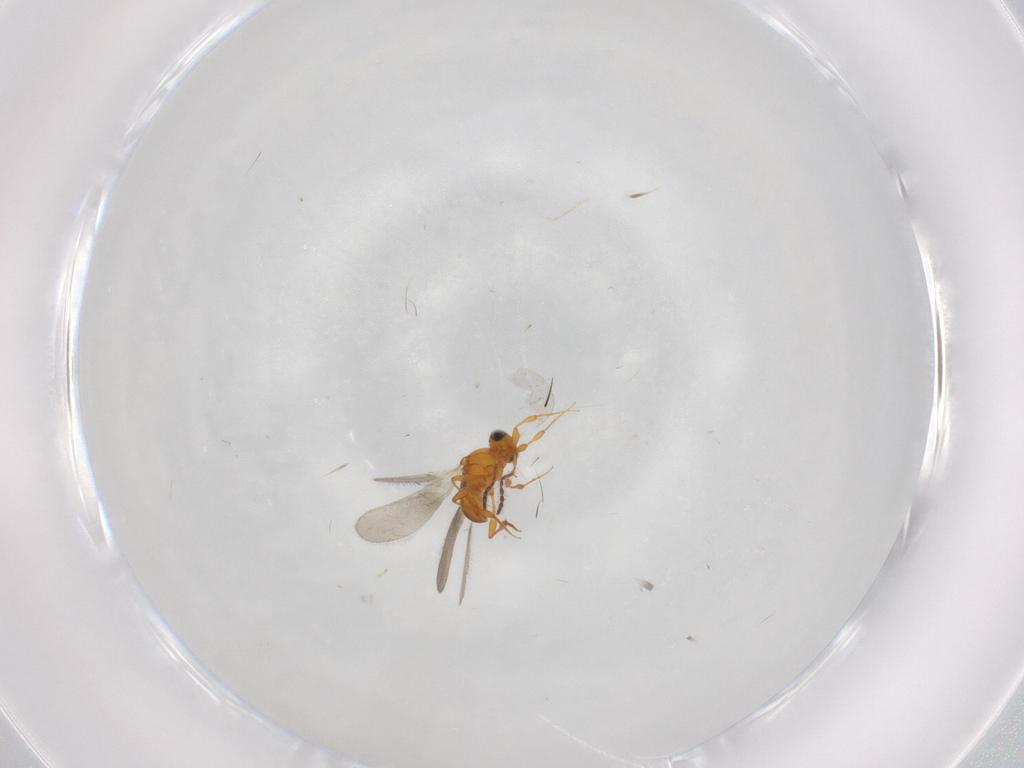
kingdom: Animalia
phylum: Arthropoda
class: Insecta
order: Hymenoptera
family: Platygastridae
